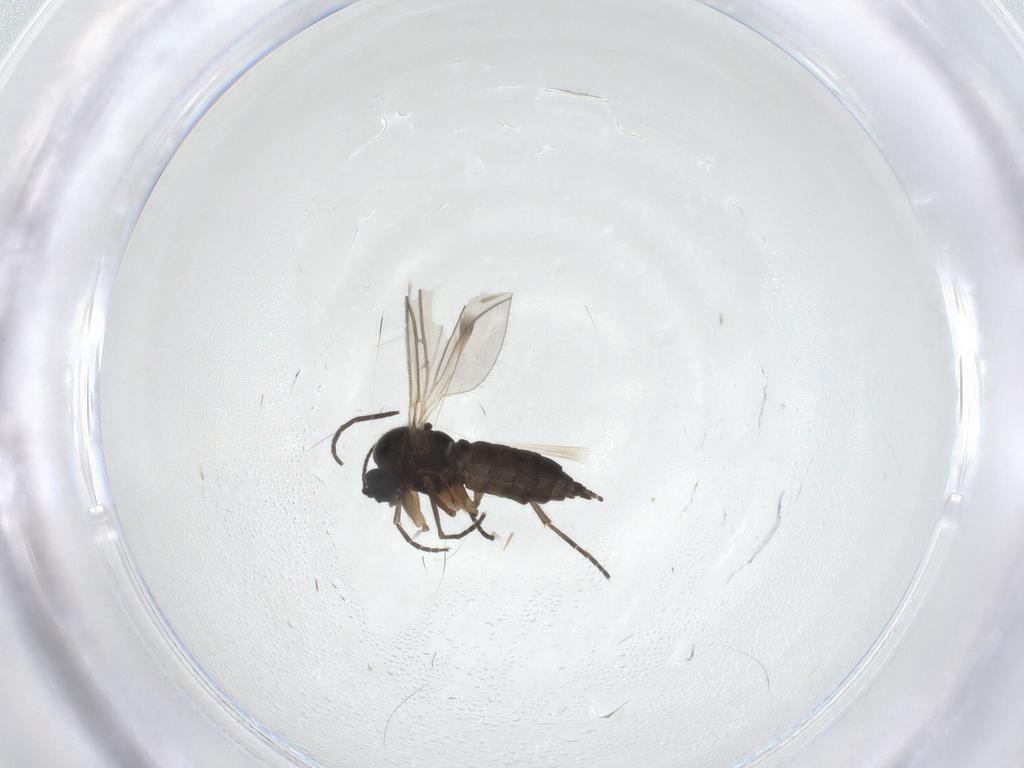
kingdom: Animalia
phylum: Arthropoda
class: Insecta
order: Diptera
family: Sciaridae
